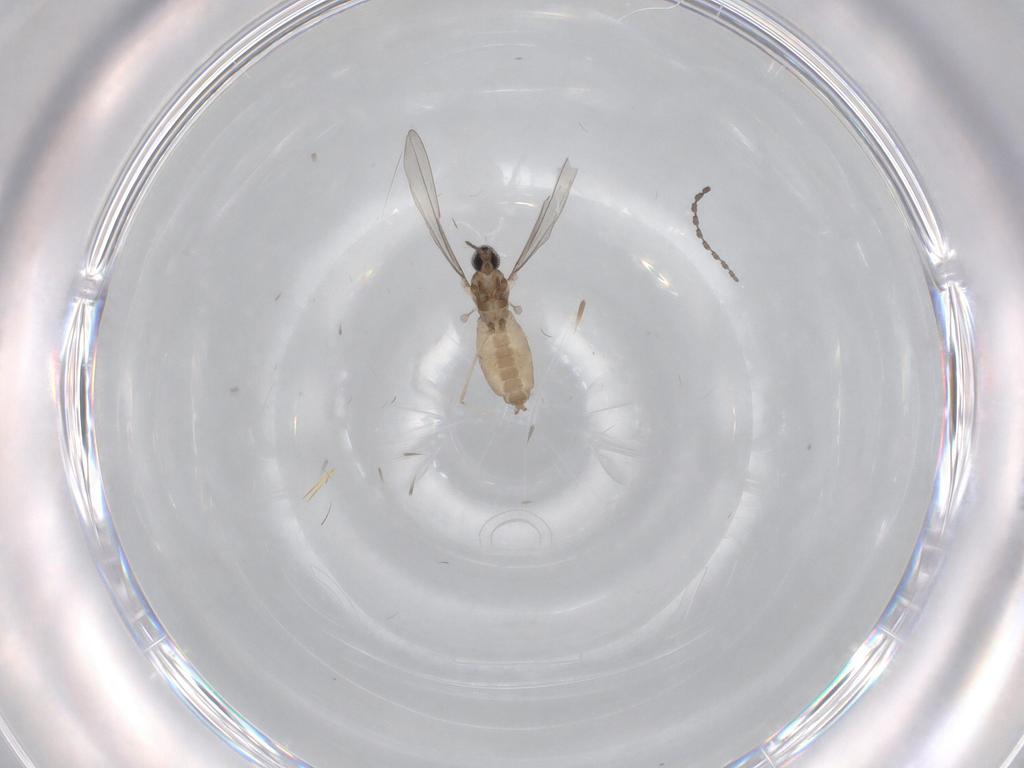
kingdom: Animalia
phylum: Arthropoda
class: Insecta
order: Diptera
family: Cecidomyiidae
